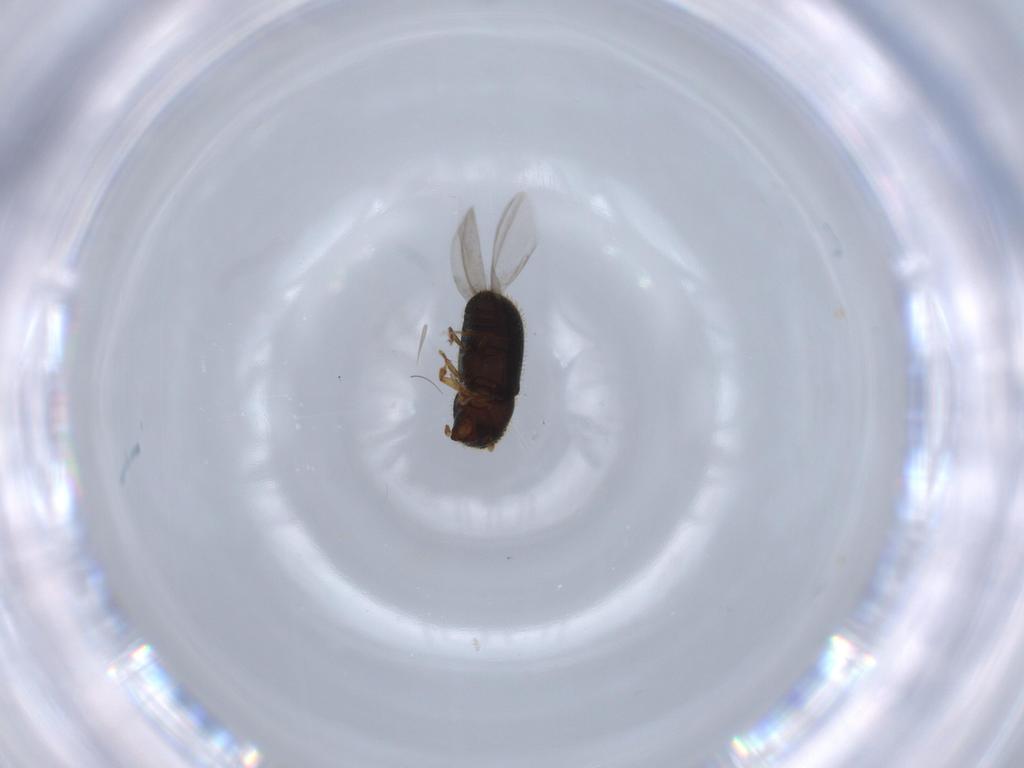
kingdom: Animalia
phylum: Arthropoda
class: Insecta
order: Coleoptera
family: Curculionidae
